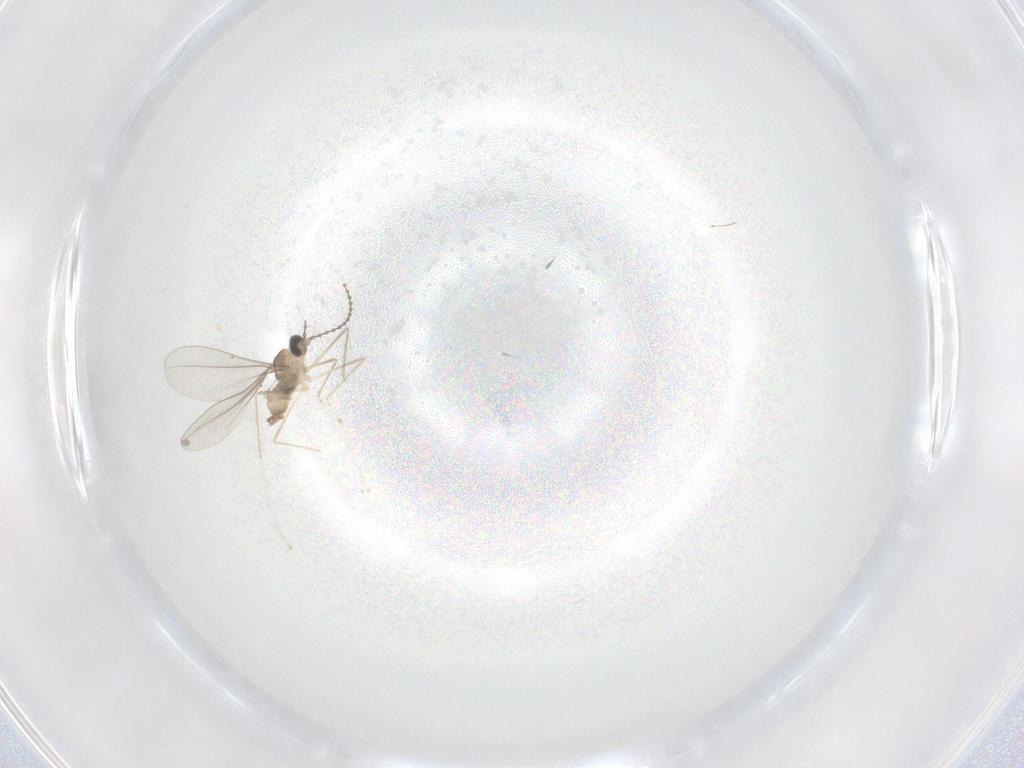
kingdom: Animalia
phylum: Arthropoda
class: Insecta
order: Diptera
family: Cecidomyiidae
